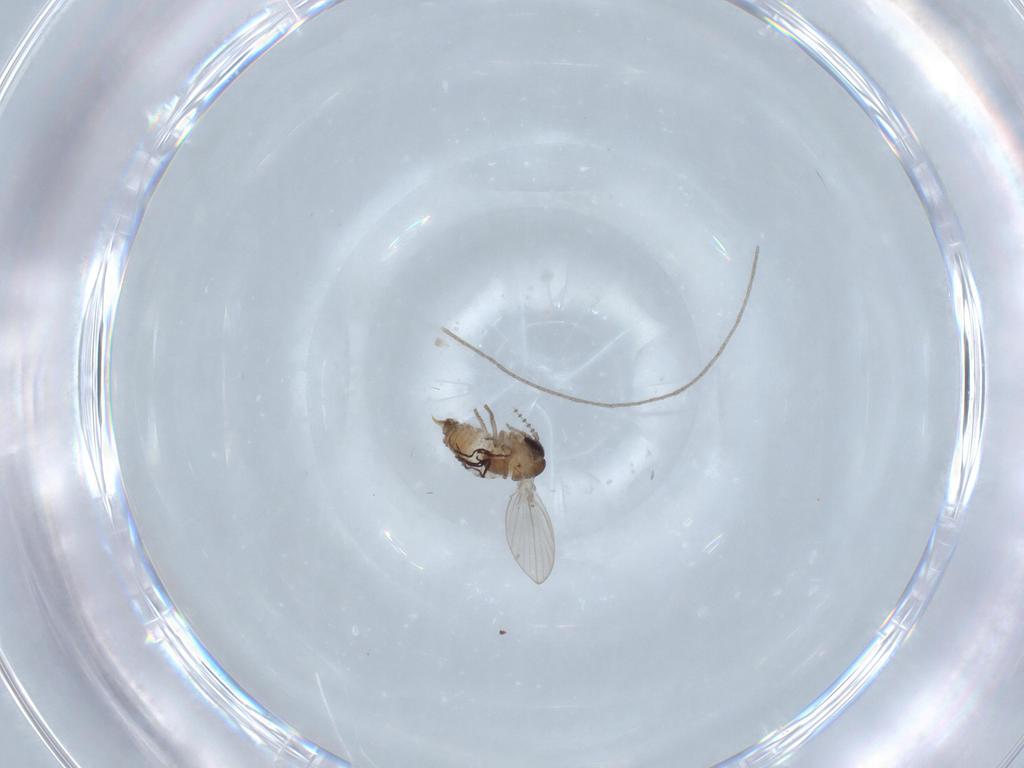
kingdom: Animalia
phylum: Arthropoda
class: Insecta
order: Diptera
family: Psychodidae
